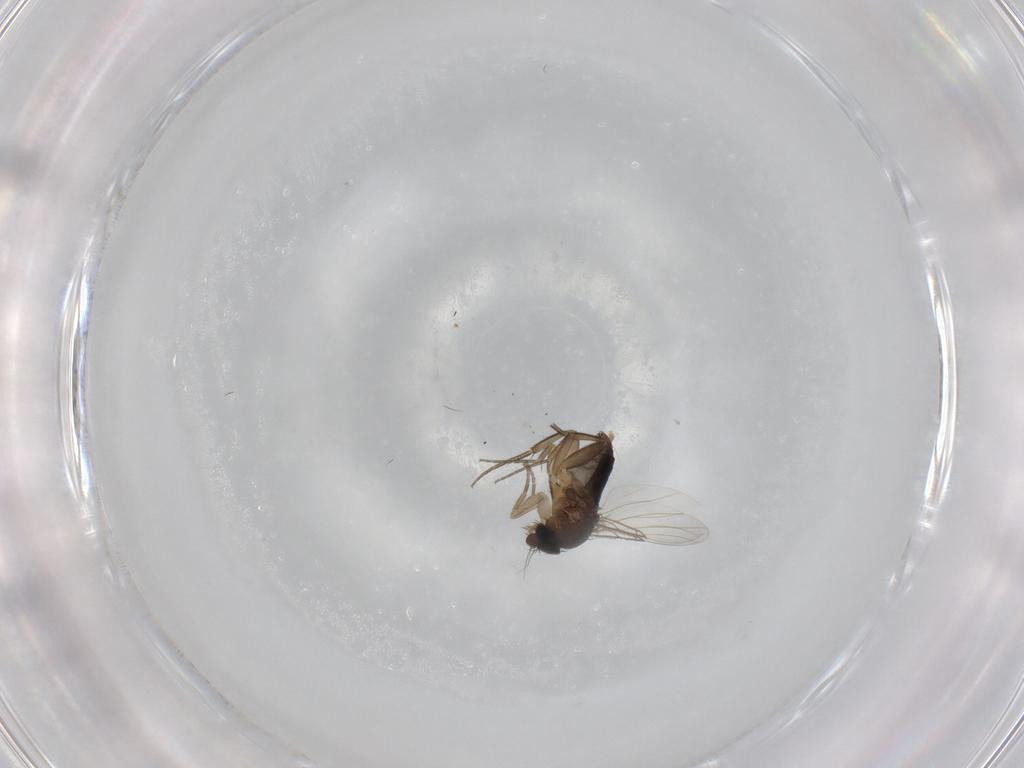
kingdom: Animalia
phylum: Arthropoda
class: Insecta
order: Diptera
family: Phoridae
